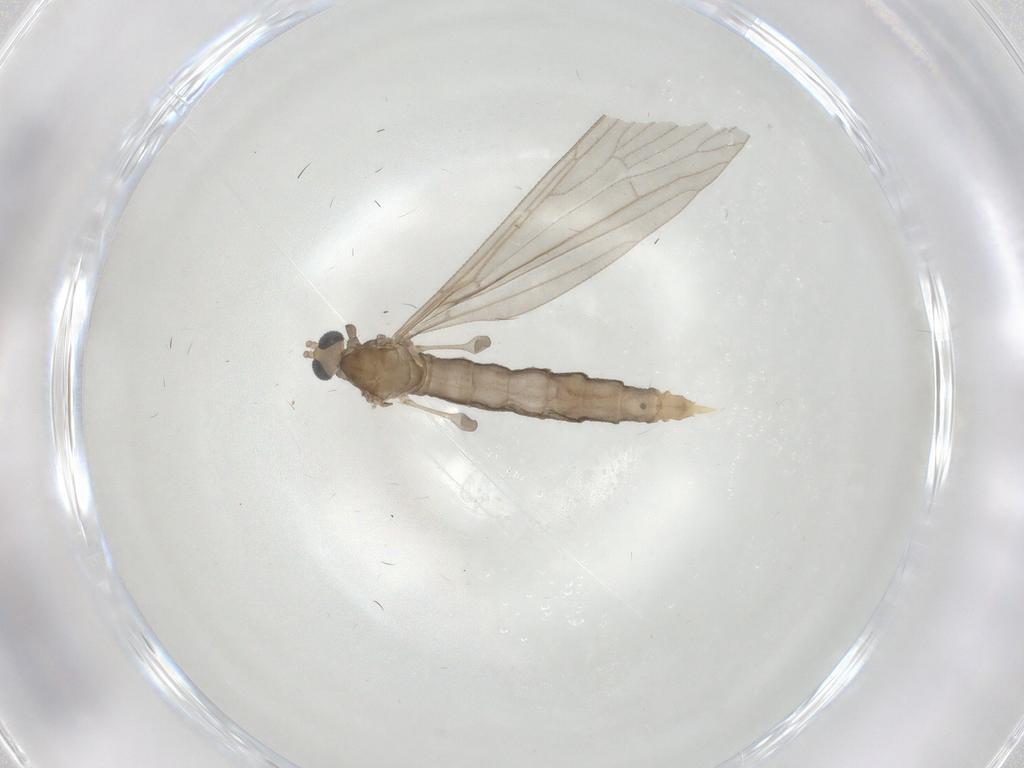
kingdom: Animalia
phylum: Arthropoda
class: Insecta
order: Diptera
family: Limoniidae
